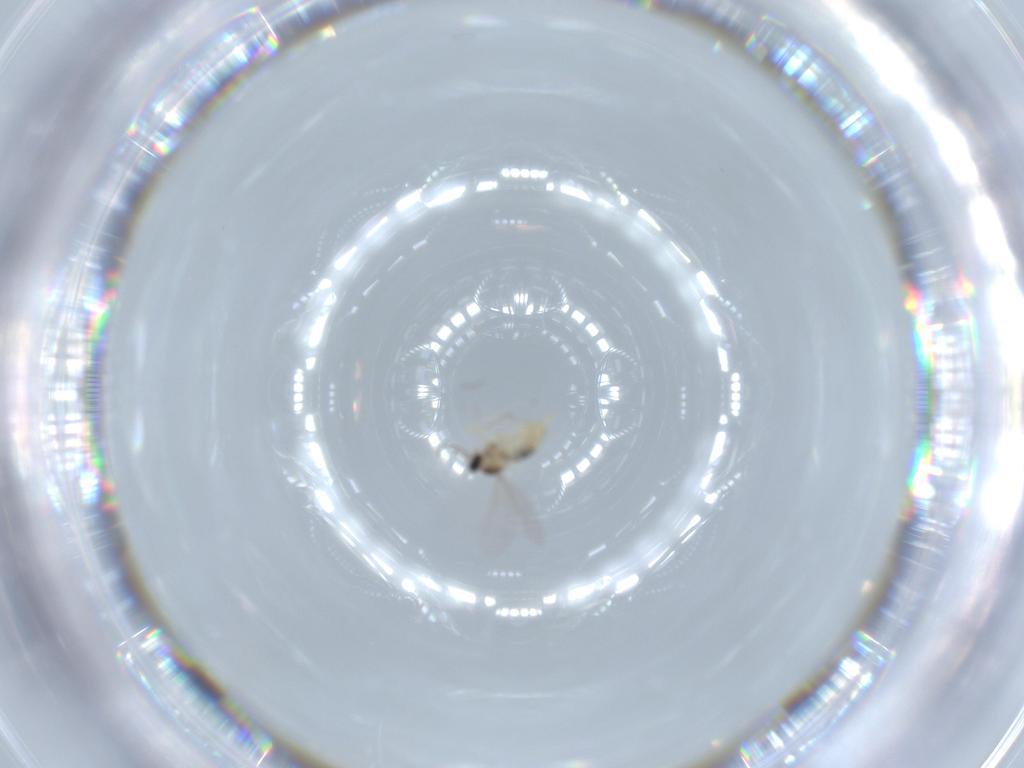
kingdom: Animalia
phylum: Arthropoda
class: Insecta
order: Diptera
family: Cecidomyiidae
